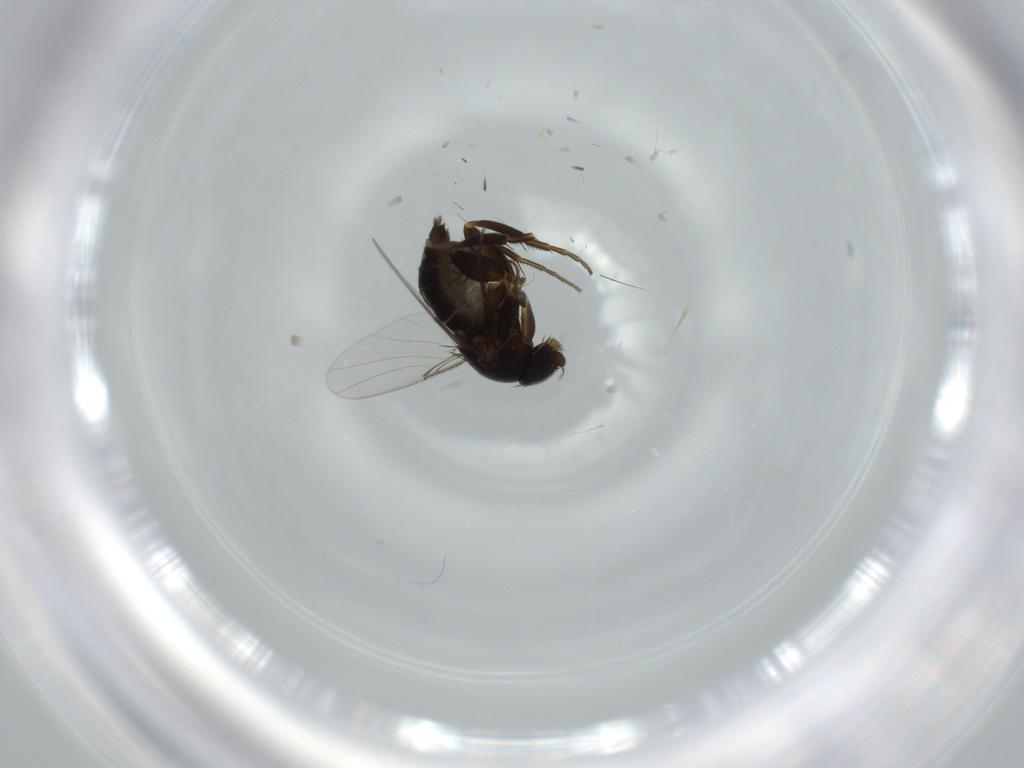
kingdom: Animalia
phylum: Arthropoda
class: Insecta
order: Diptera
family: Phoridae
